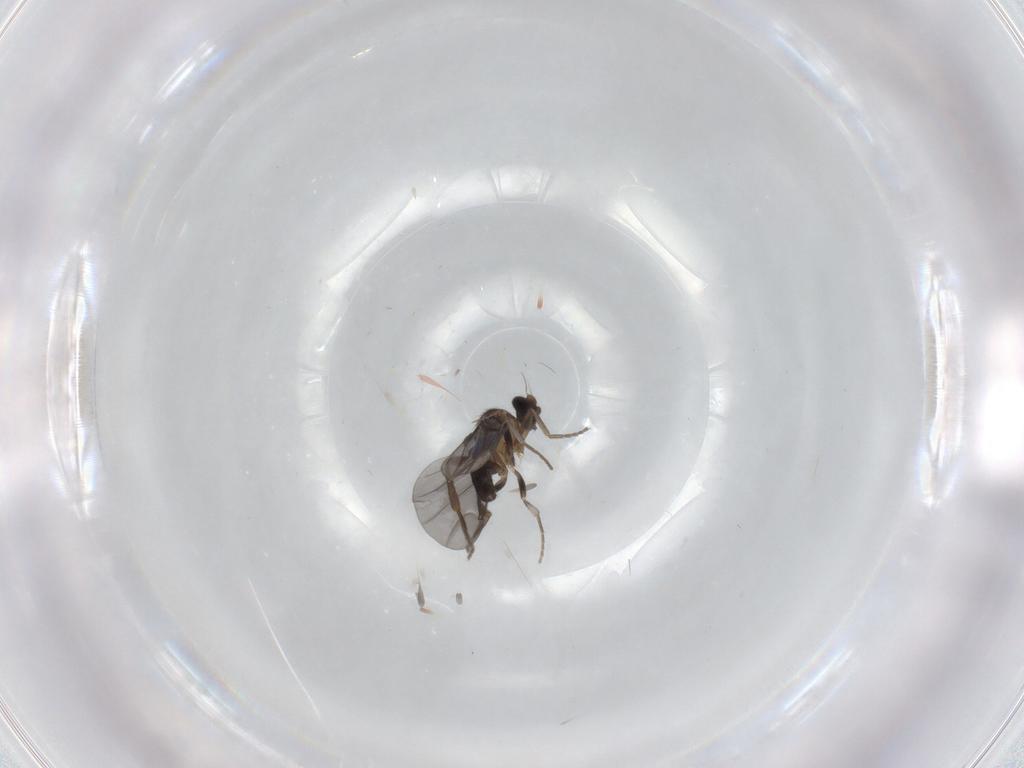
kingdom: Animalia
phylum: Arthropoda
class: Insecta
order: Diptera
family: Phoridae
